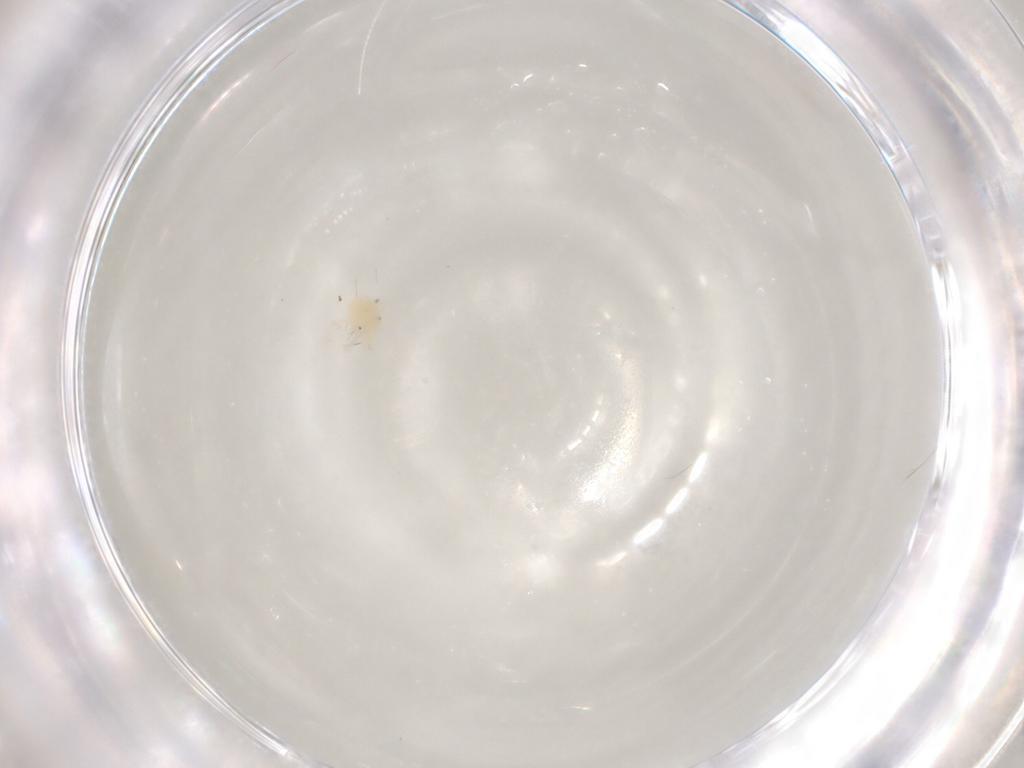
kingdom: Animalia
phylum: Arthropoda
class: Arachnida
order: Trombidiformes
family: Anystidae
